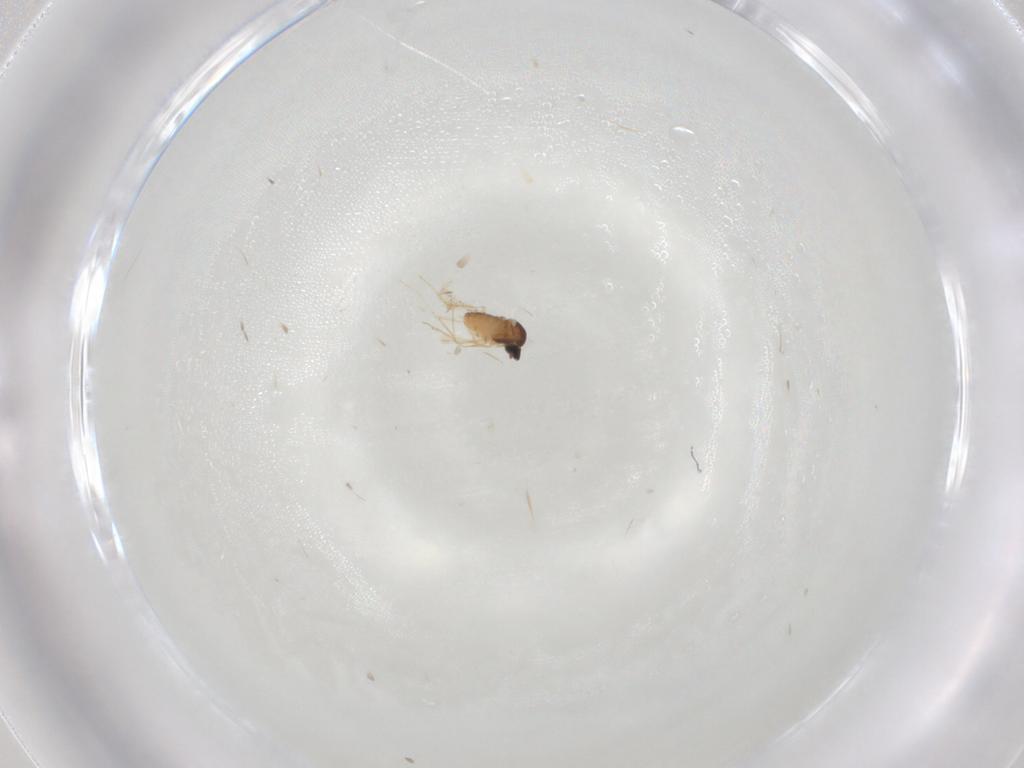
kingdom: Animalia
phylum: Arthropoda
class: Insecta
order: Diptera
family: Cecidomyiidae
